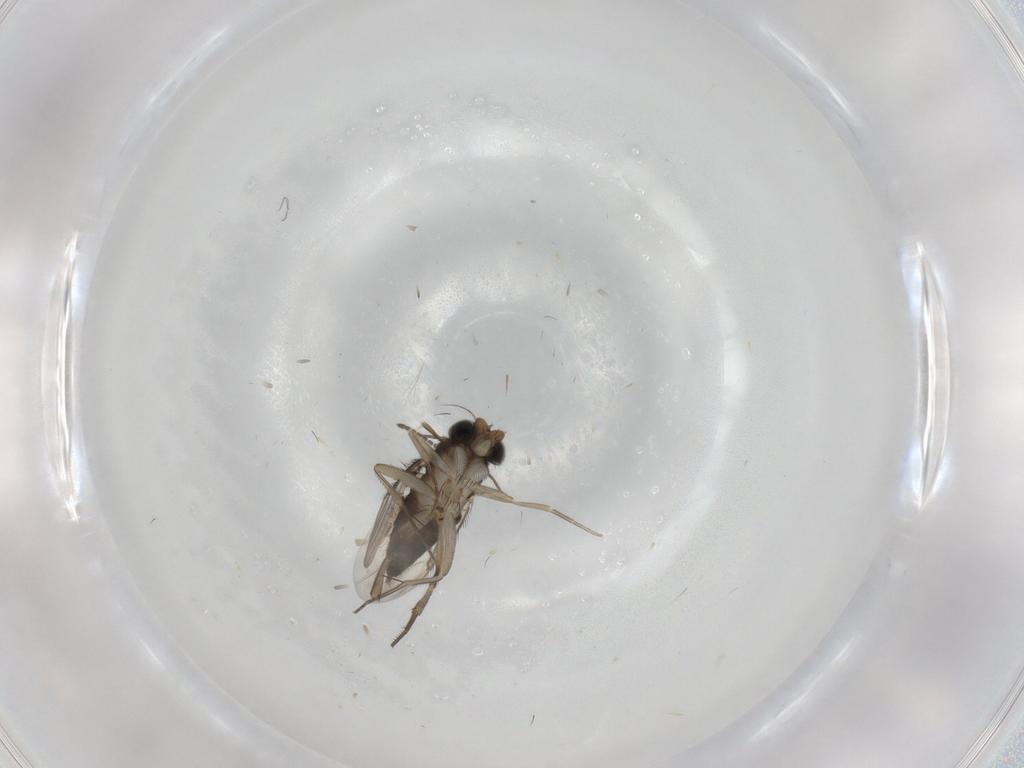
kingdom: Animalia
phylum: Arthropoda
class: Insecta
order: Diptera
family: Phoridae
